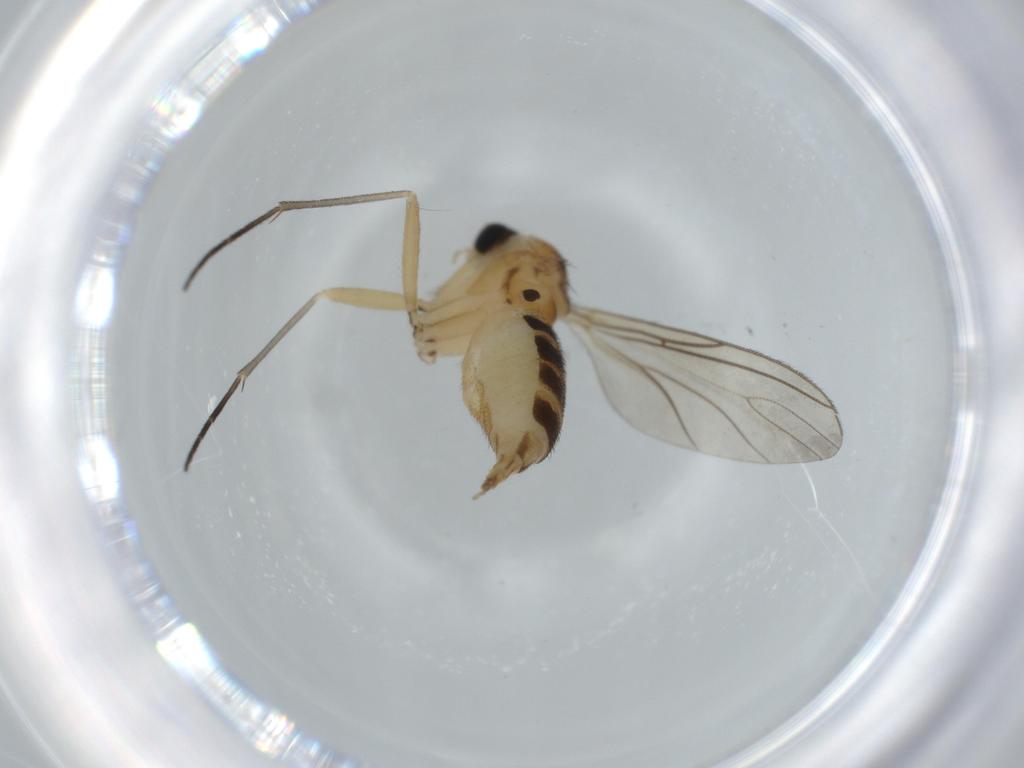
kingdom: Animalia
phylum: Arthropoda
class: Insecta
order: Diptera
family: Sciaridae
